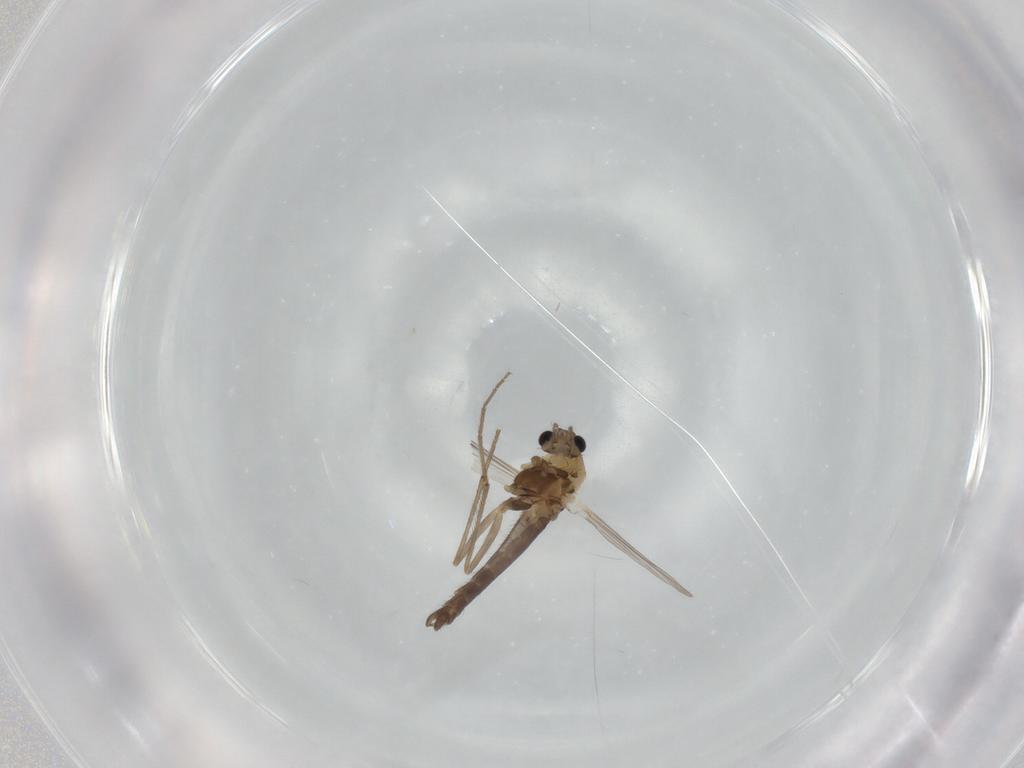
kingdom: Animalia
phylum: Arthropoda
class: Insecta
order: Diptera
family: Chironomidae
